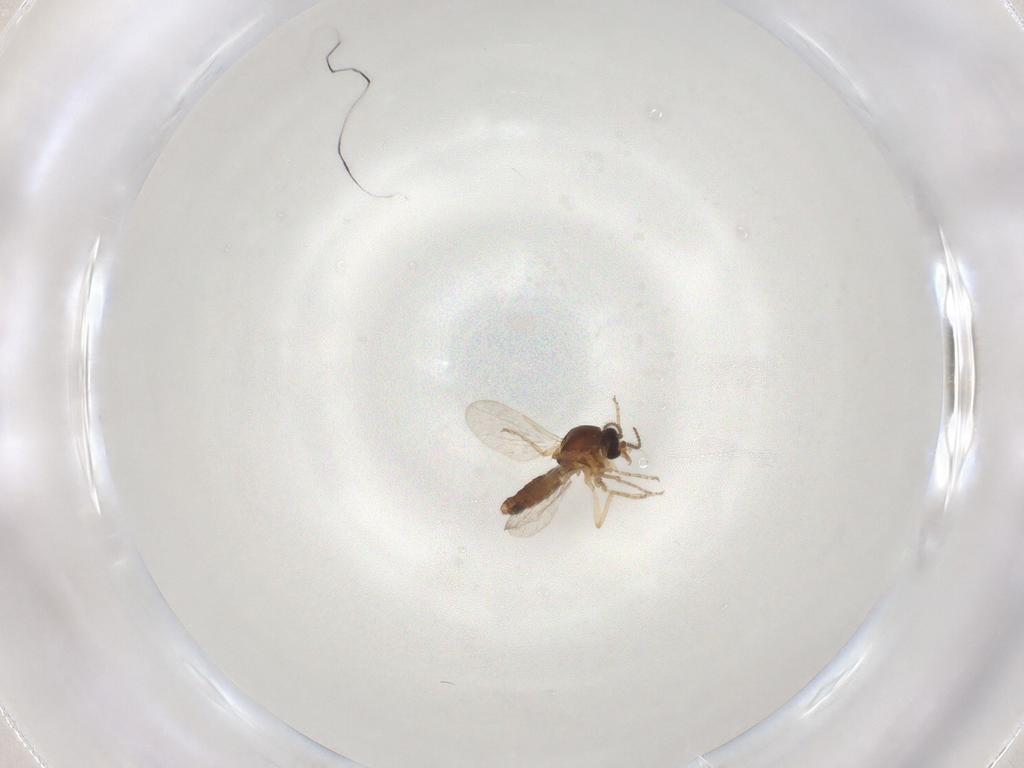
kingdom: Animalia
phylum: Arthropoda
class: Insecta
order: Diptera
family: Ceratopogonidae
